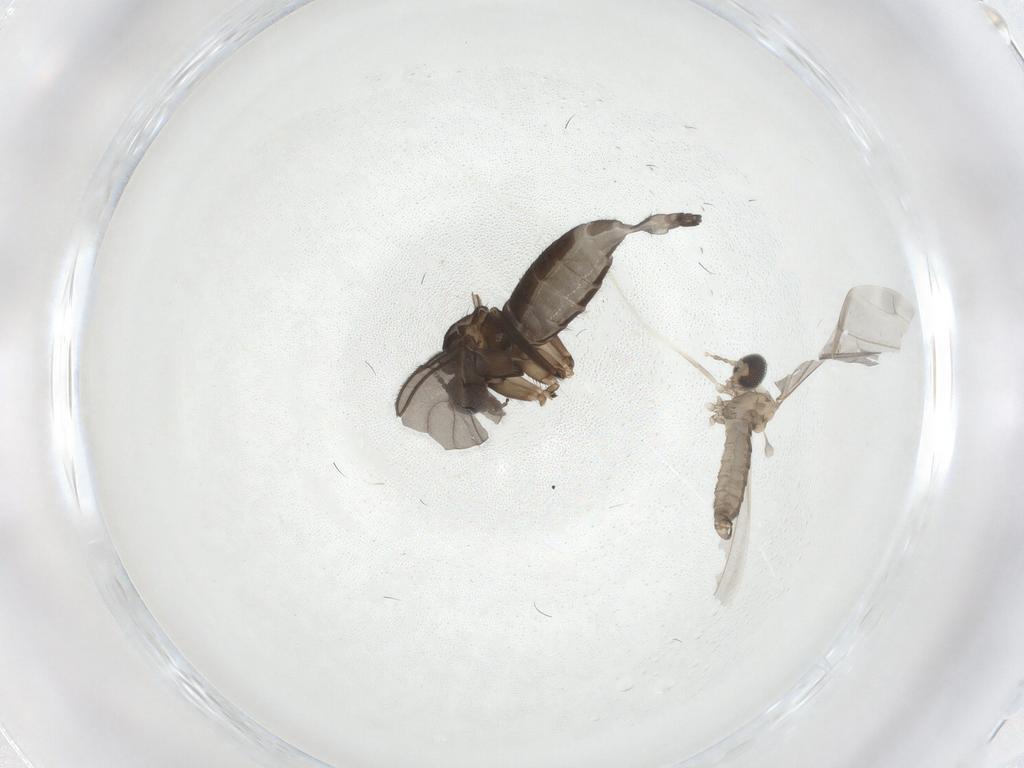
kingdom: Animalia
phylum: Arthropoda
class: Insecta
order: Diptera
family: Sciaridae
